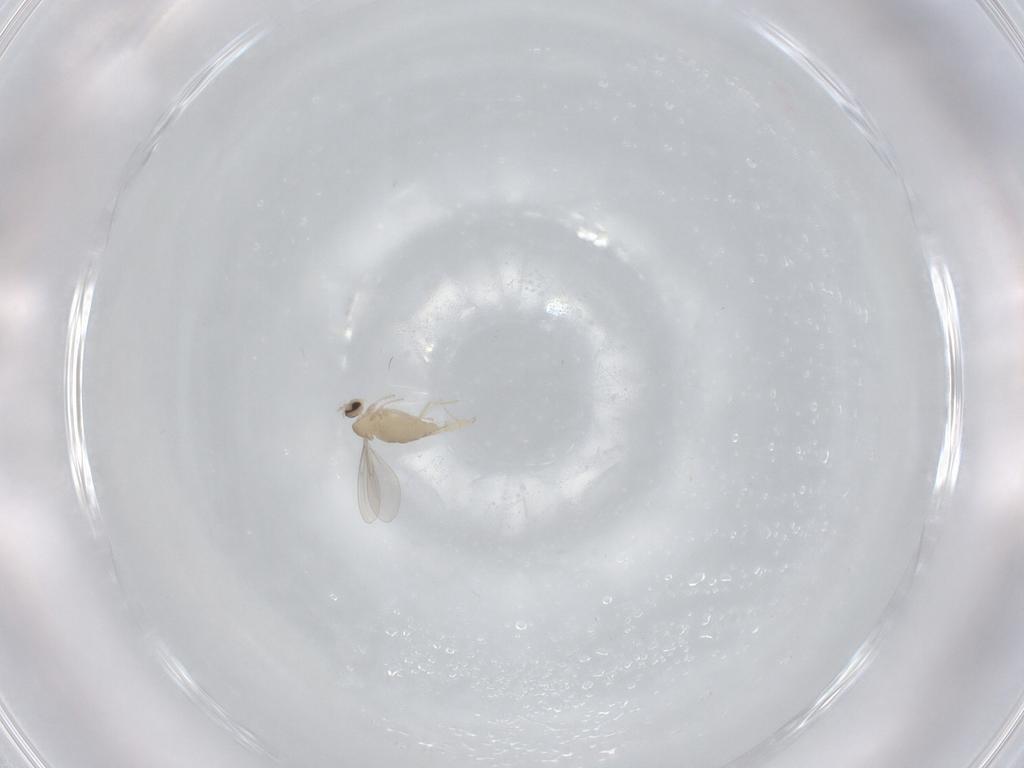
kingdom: Animalia
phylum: Arthropoda
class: Insecta
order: Diptera
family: Cecidomyiidae
